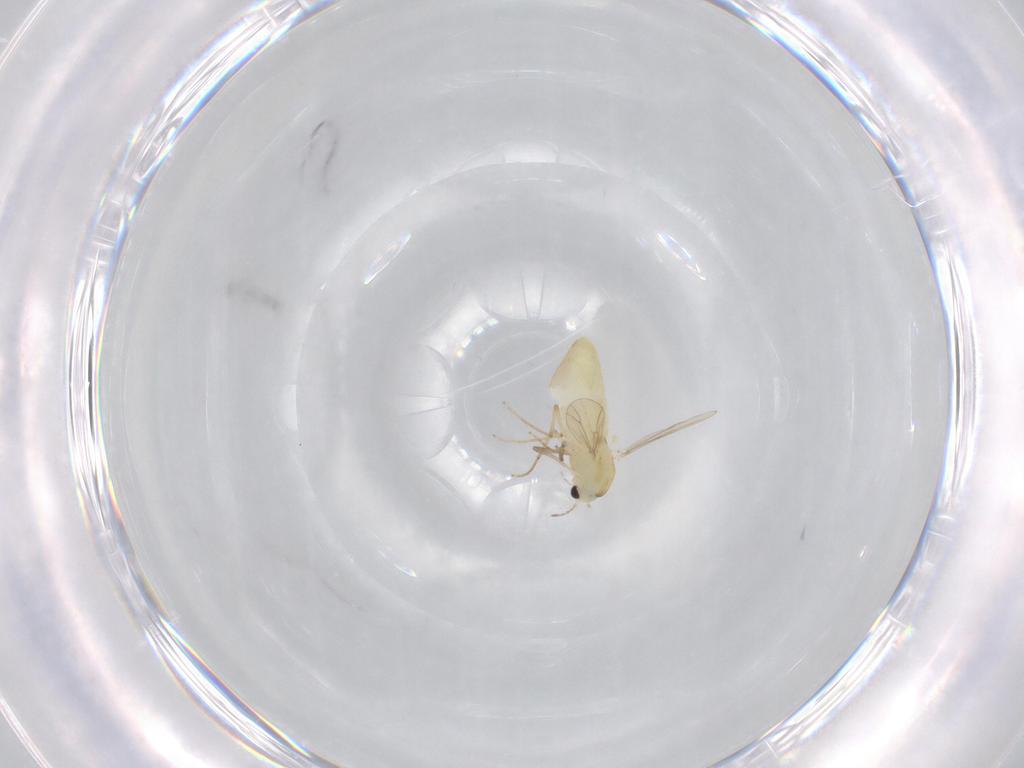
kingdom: Animalia
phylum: Arthropoda
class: Insecta
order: Diptera
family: Chironomidae
